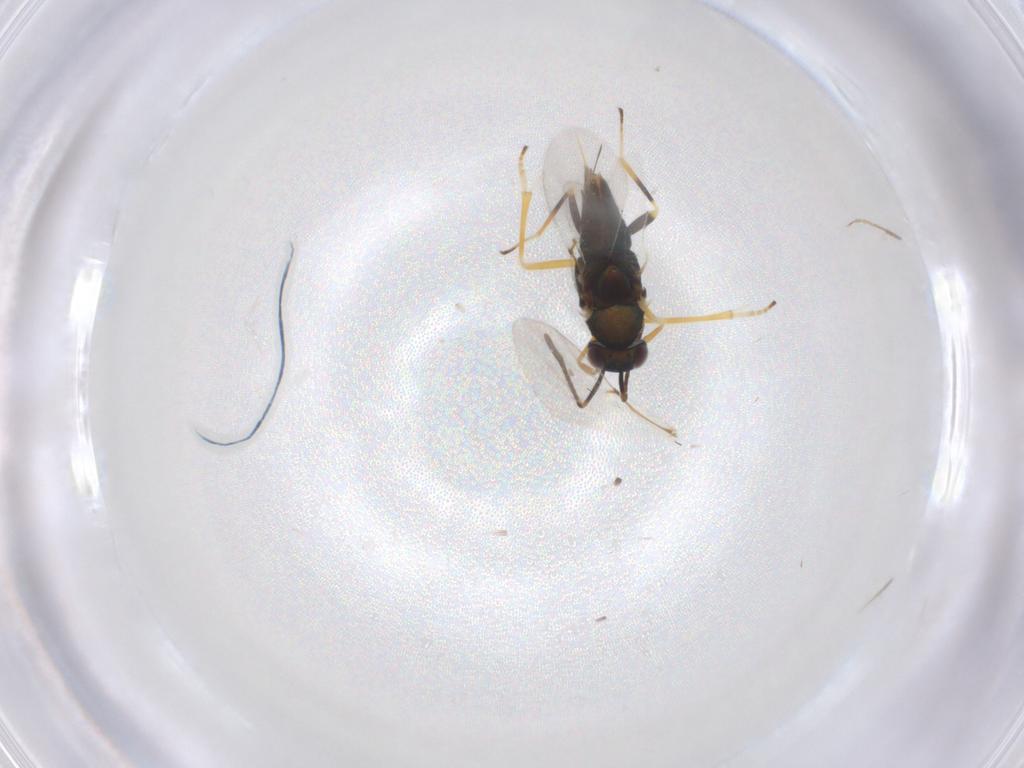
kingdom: Animalia
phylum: Arthropoda
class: Insecta
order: Hymenoptera
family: Encyrtidae
